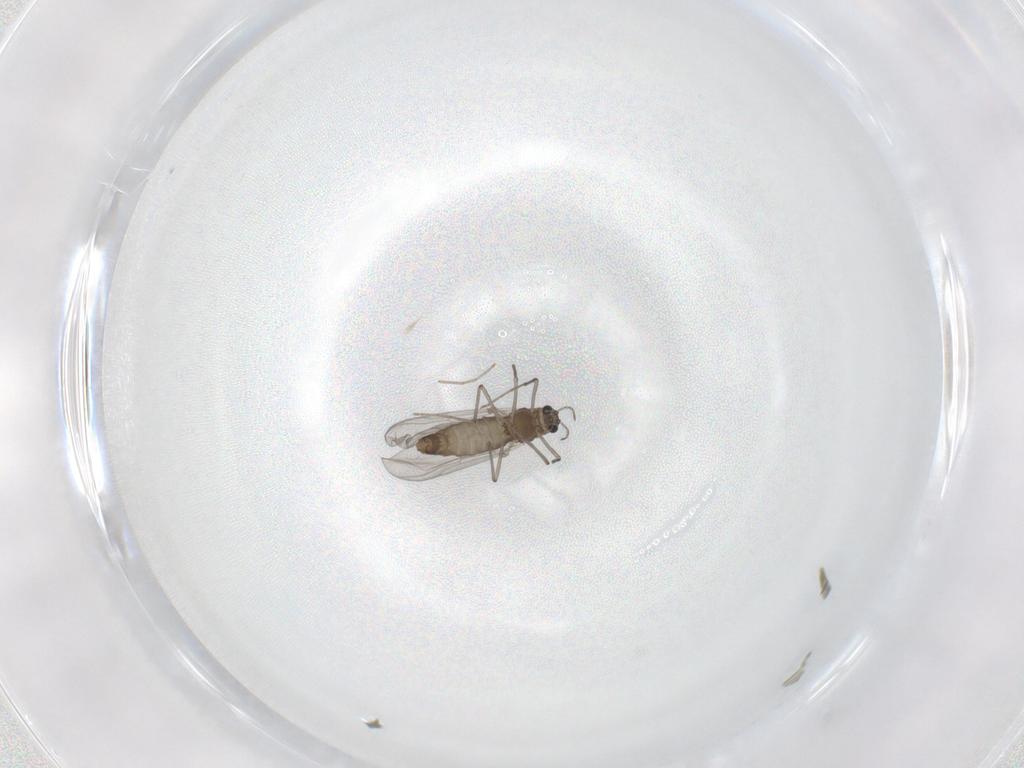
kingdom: Animalia
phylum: Arthropoda
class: Insecta
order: Diptera
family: Chironomidae
